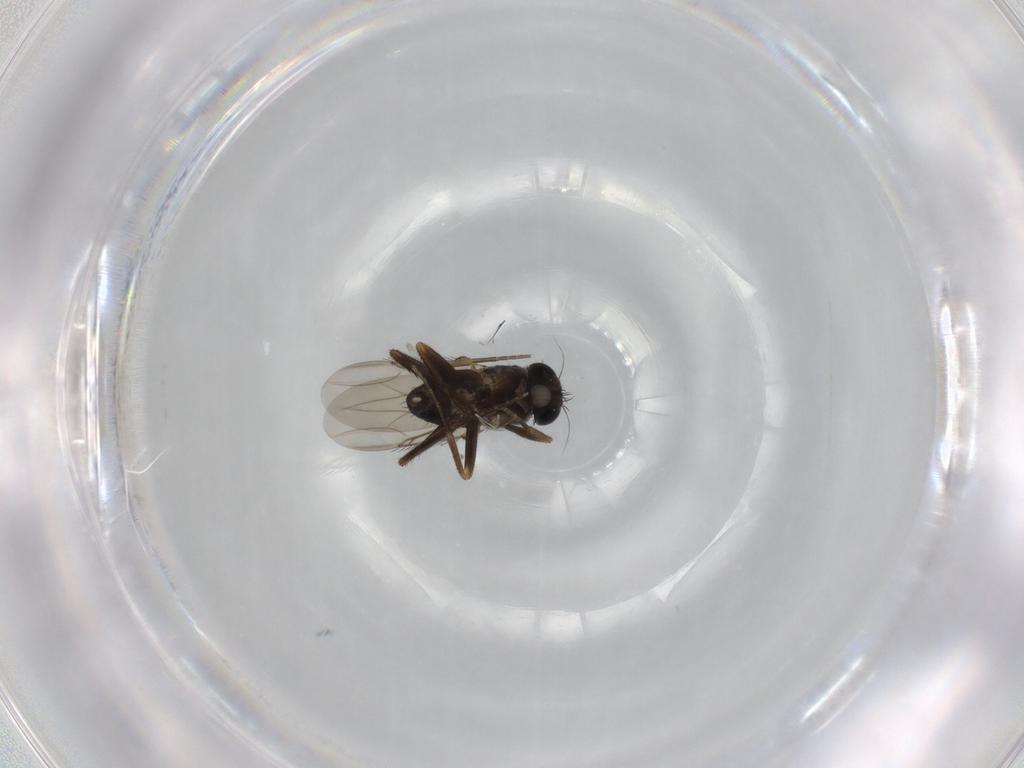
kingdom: Animalia
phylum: Arthropoda
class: Insecta
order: Diptera
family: Phoridae
